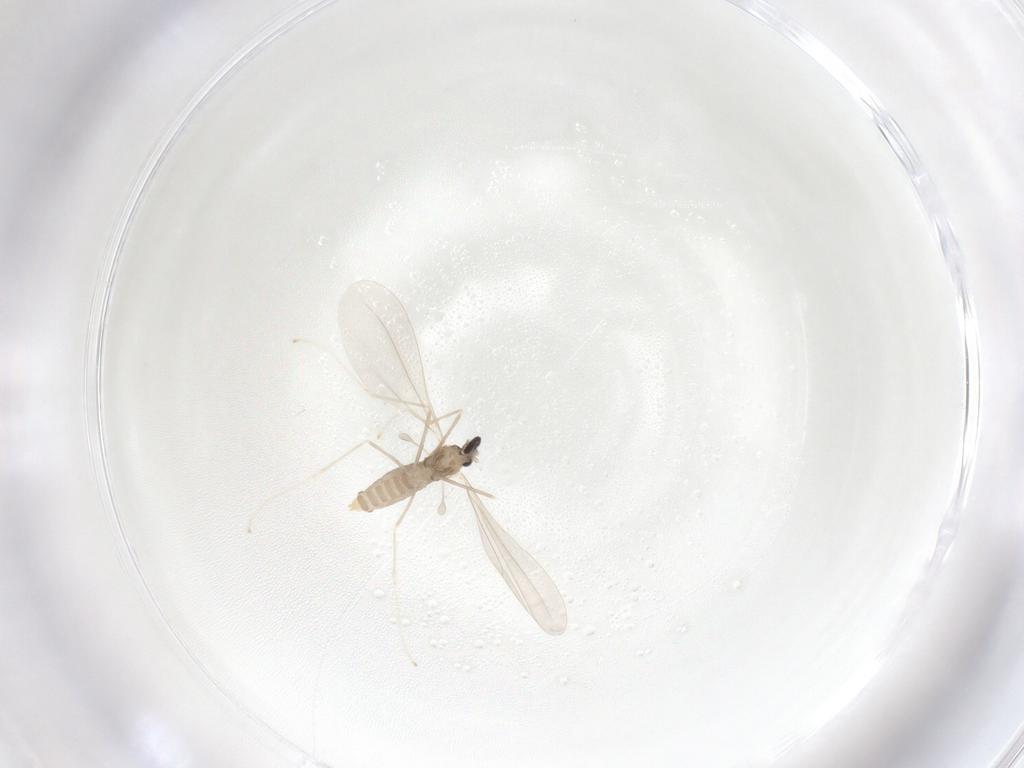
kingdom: Animalia
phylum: Arthropoda
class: Insecta
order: Diptera
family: Cecidomyiidae
